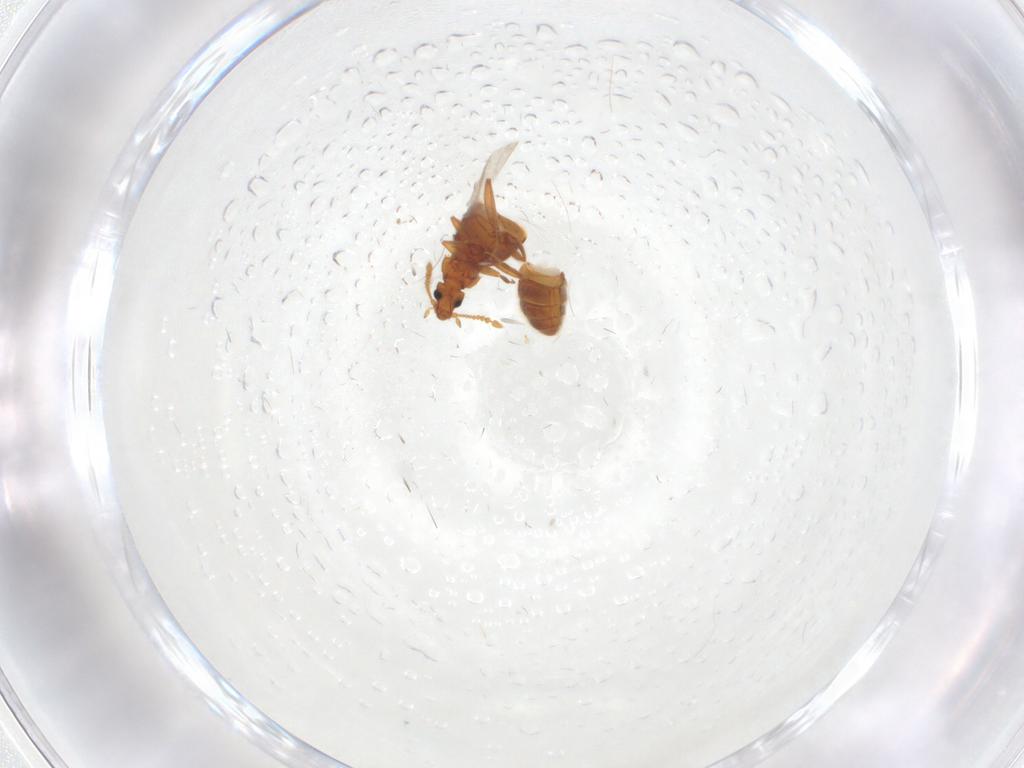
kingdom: Animalia
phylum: Arthropoda
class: Insecta
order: Coleoptera
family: Staphylinidae
